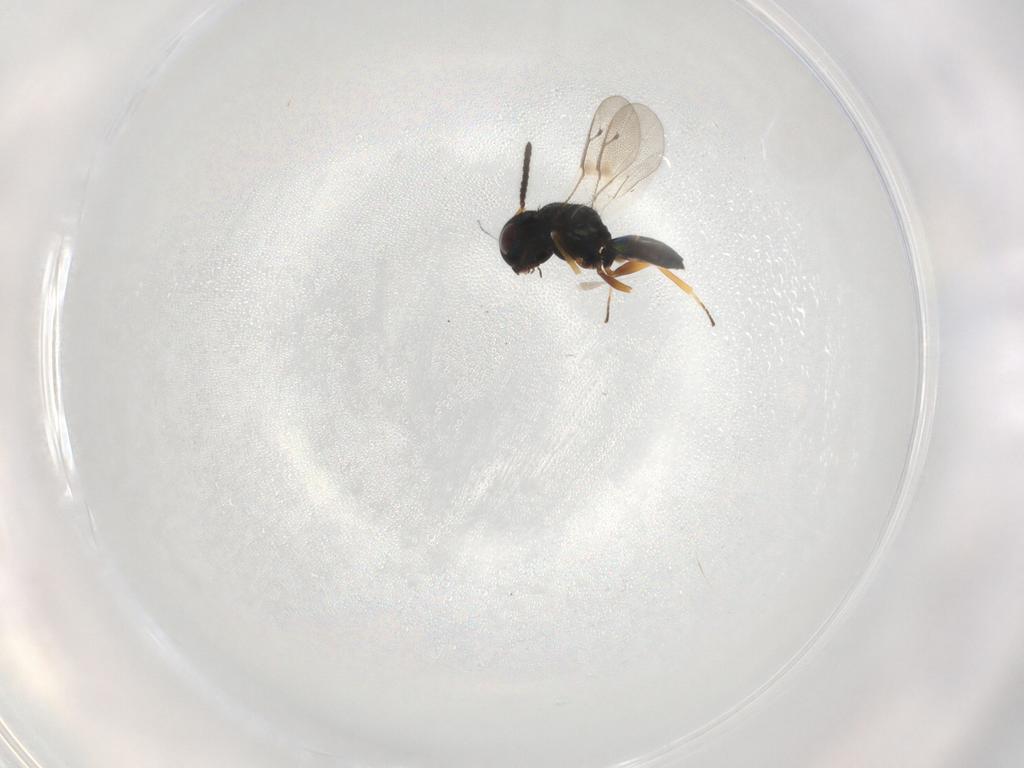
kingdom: Animalia
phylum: Arthropoda
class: Insecta
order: Hymenoptera
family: Pteromalidae
